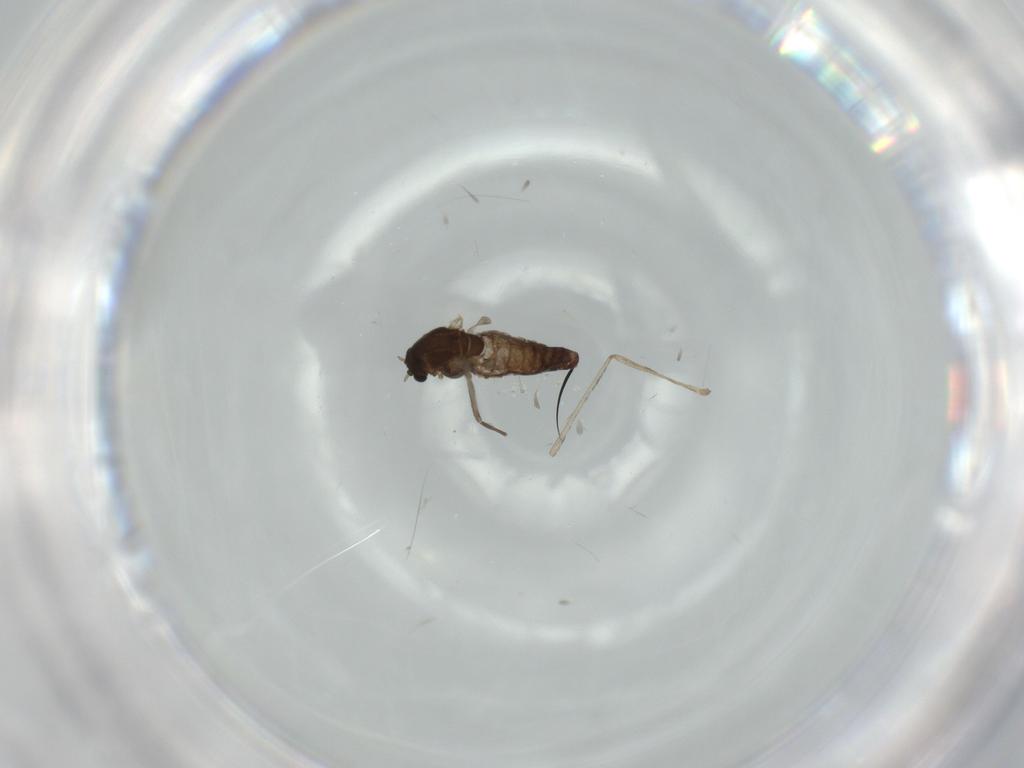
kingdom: Animalia
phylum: Arthropoda
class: Insecta
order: Diptera
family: Chironomidae
